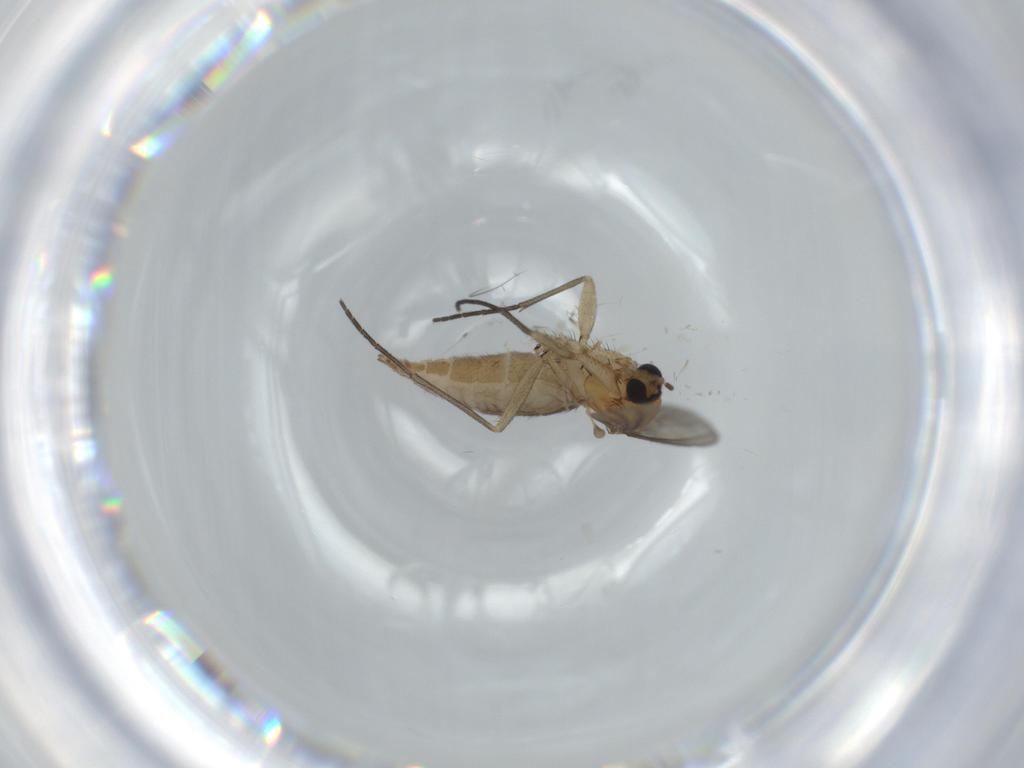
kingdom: Animalia
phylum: Arthropoda
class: Insecta
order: Diptera
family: Sciaridae
